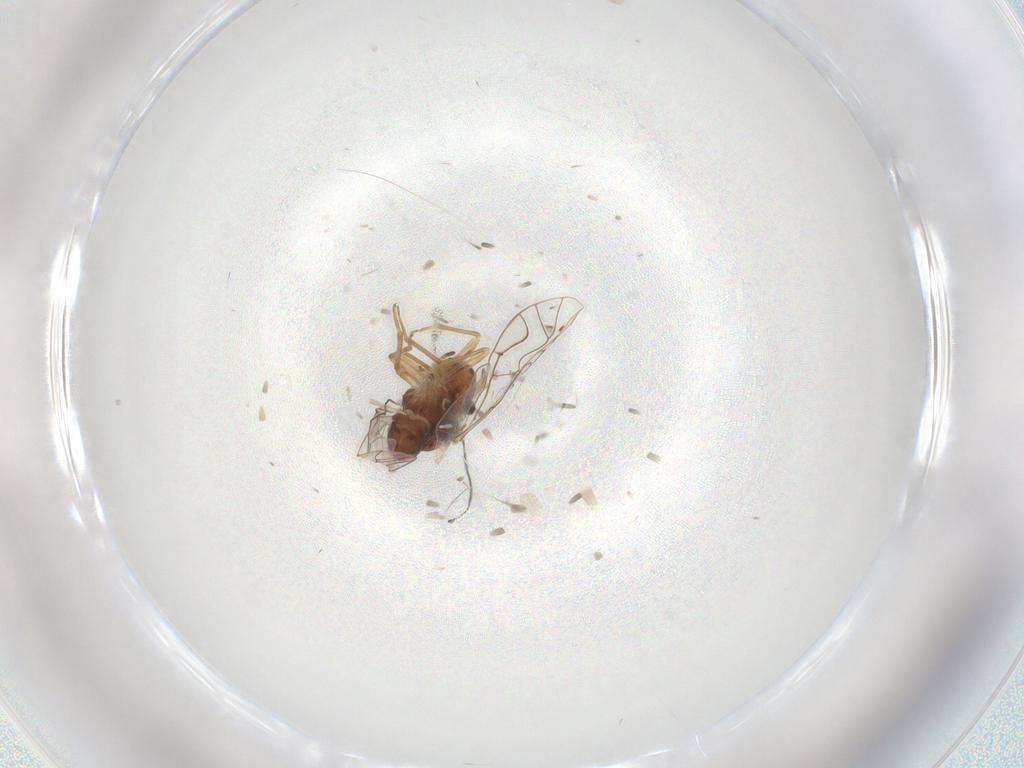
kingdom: Animalia
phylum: Arthropoda
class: Insecta
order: Psocodea
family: Lachesillidae
